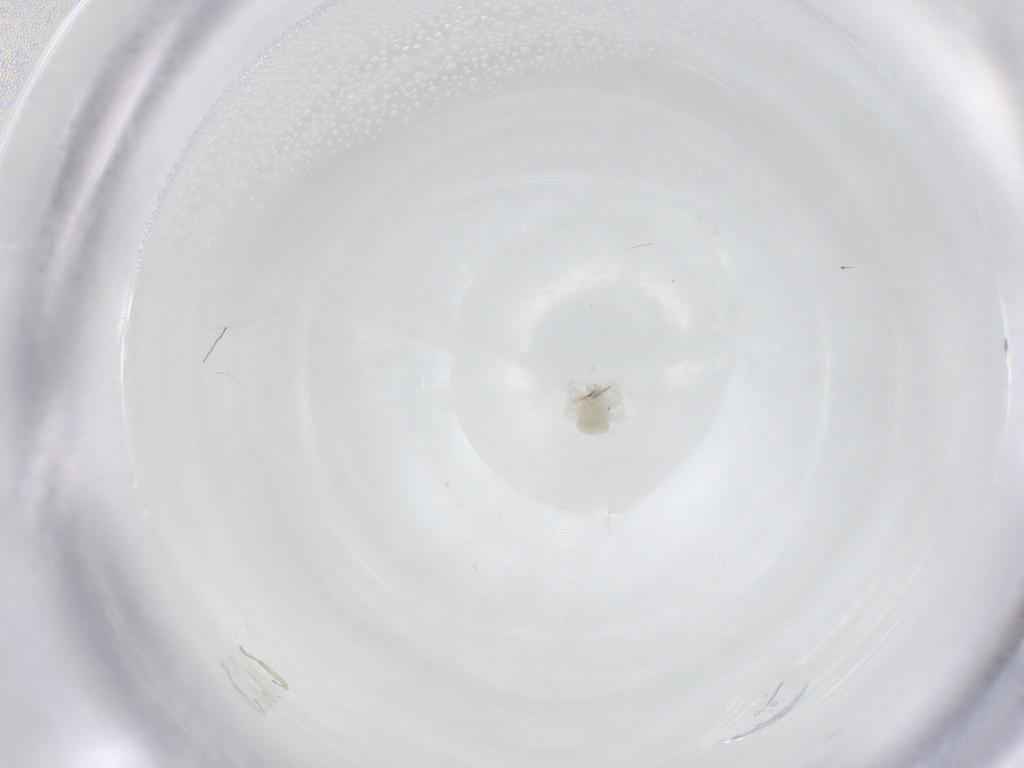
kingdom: Animalia
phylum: Arthropoda
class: Arachnida
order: Trombidiformes
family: Anystidae
